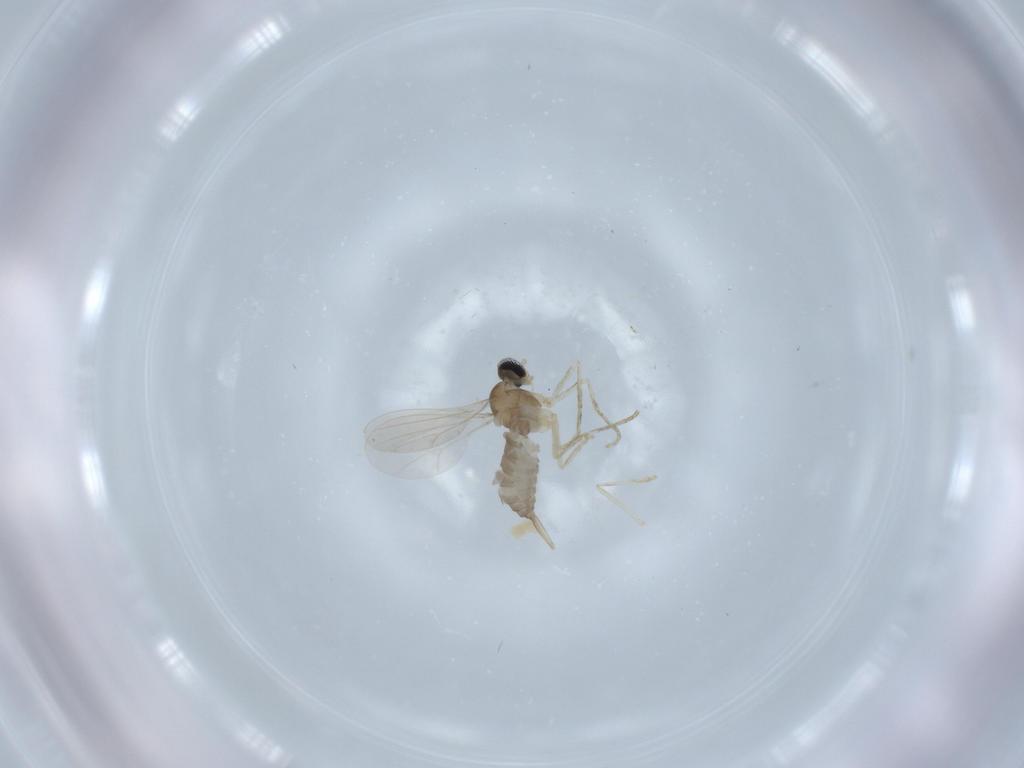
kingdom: Animalia
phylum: Arthropoda
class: Insecta
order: Diptera
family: Cecidomyiidae
